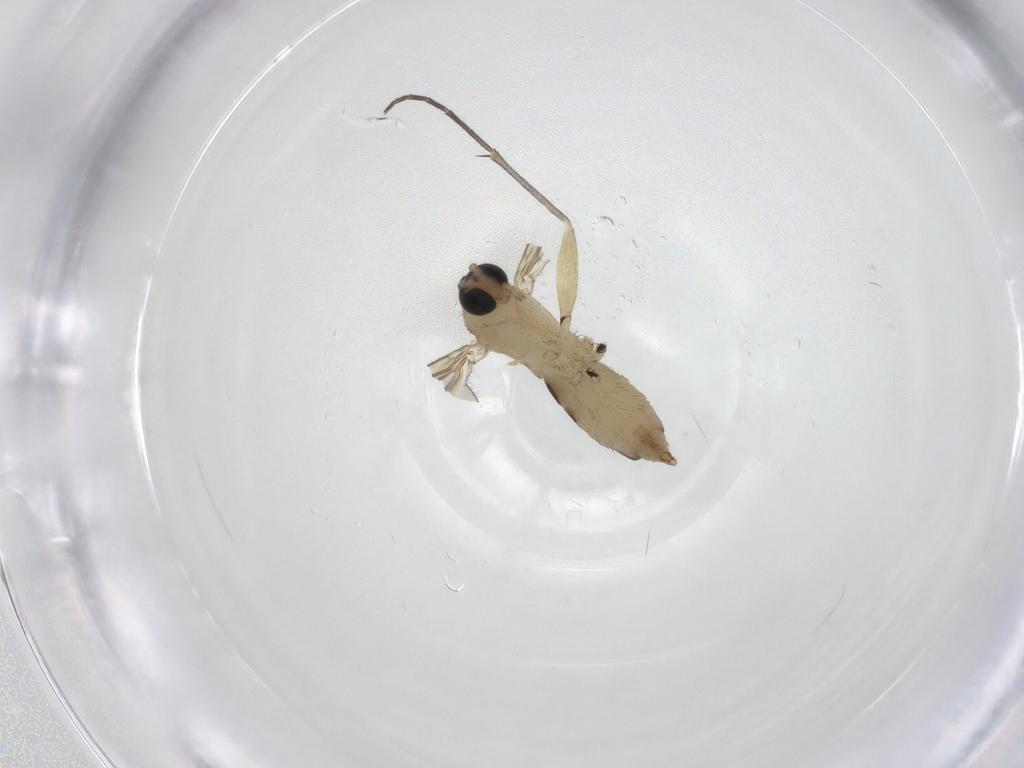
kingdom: Animalia
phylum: Arthropoda
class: Insecta
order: Diptera
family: Sciaridae
